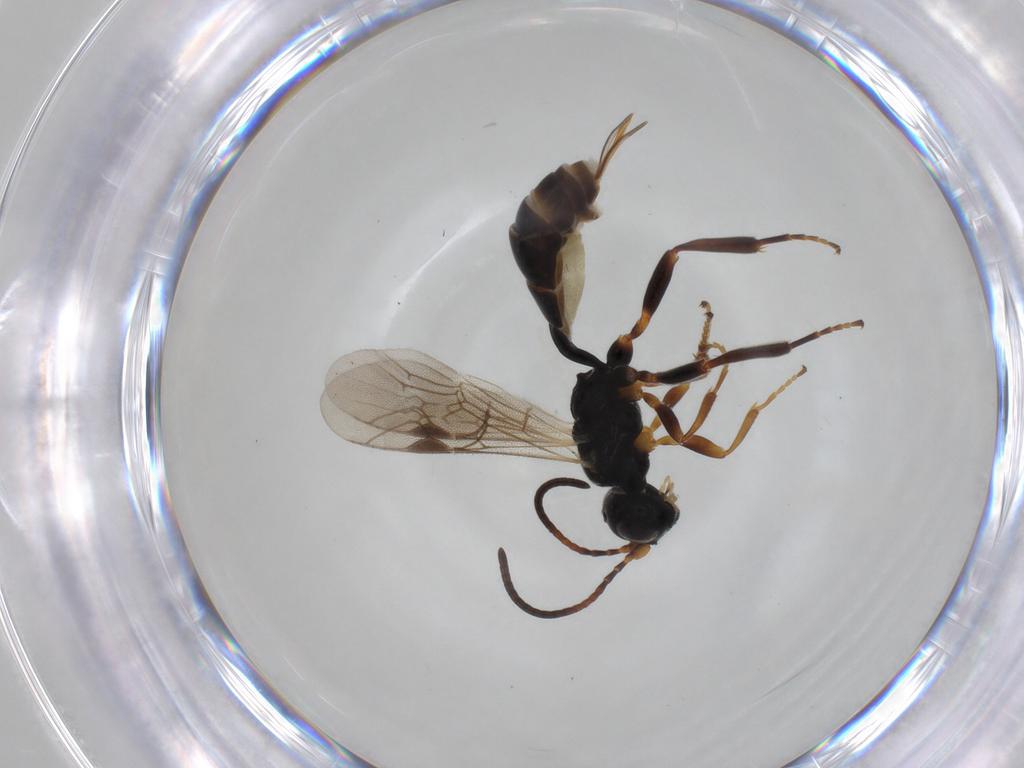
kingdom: Animalia
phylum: Arthropoda
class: Insecta
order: Hymenoptera
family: Ichneumonidae
